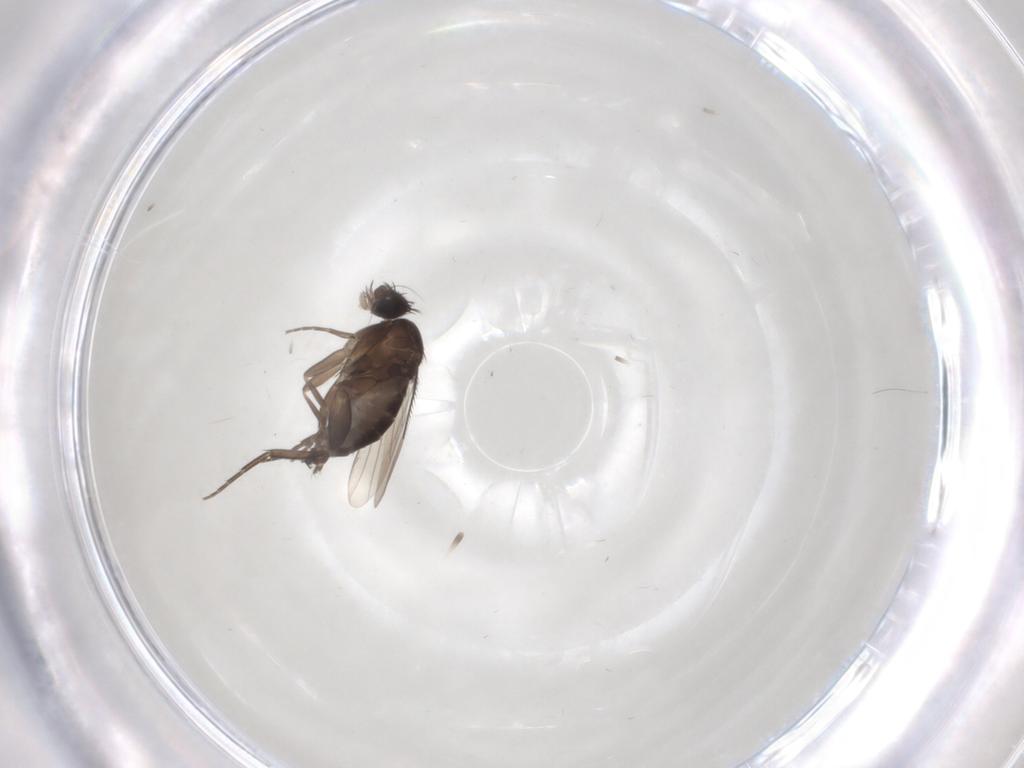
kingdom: Animalia
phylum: Arthropoda
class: Insecta
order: Diptera
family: Phoridae
